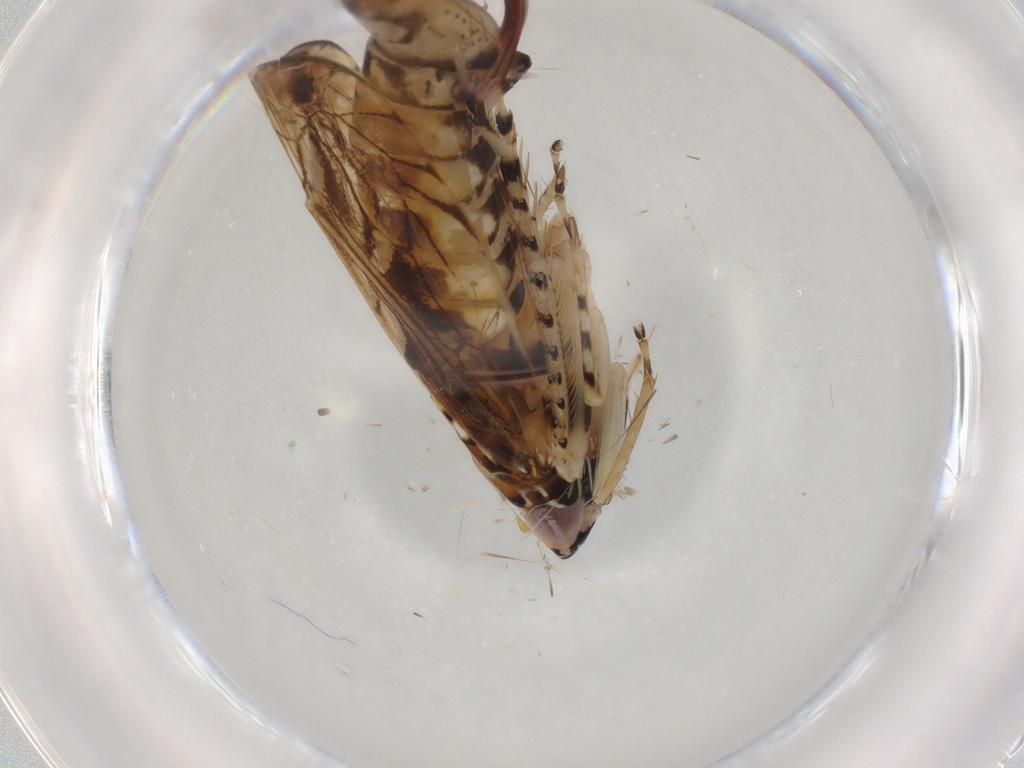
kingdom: Animalia
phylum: Arthropoda
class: Insecta
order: Hemiptera
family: Cicadellidae
